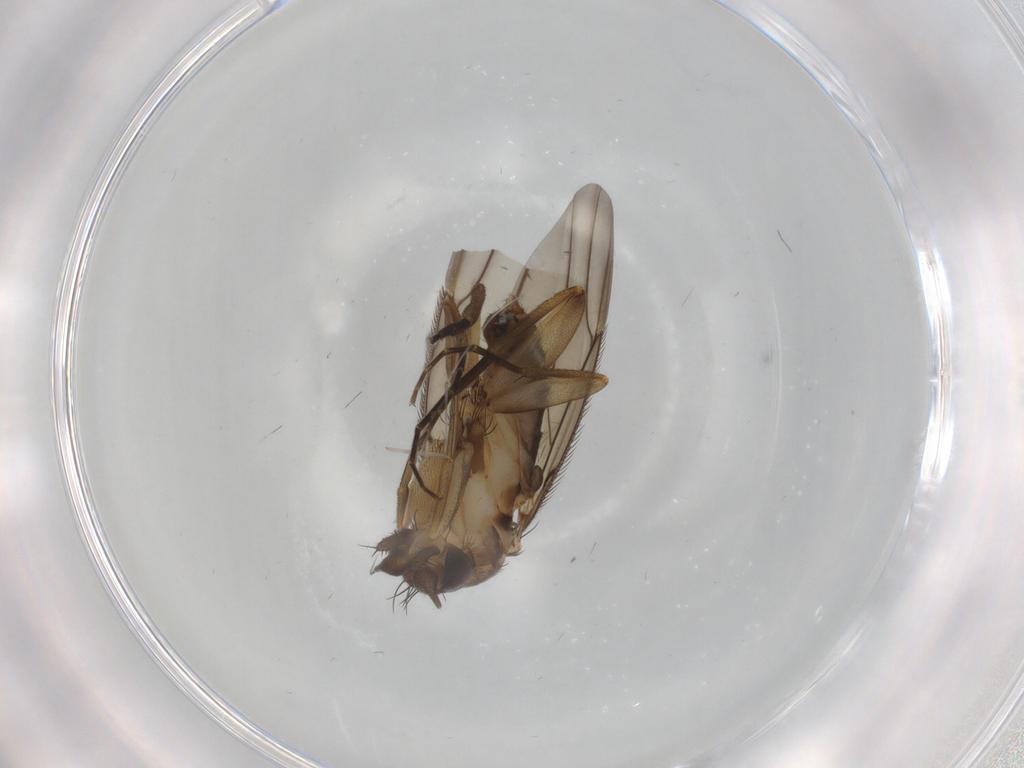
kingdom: Animalia
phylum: Arthropoda
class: Insecta
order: Diptera
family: Phoridae
